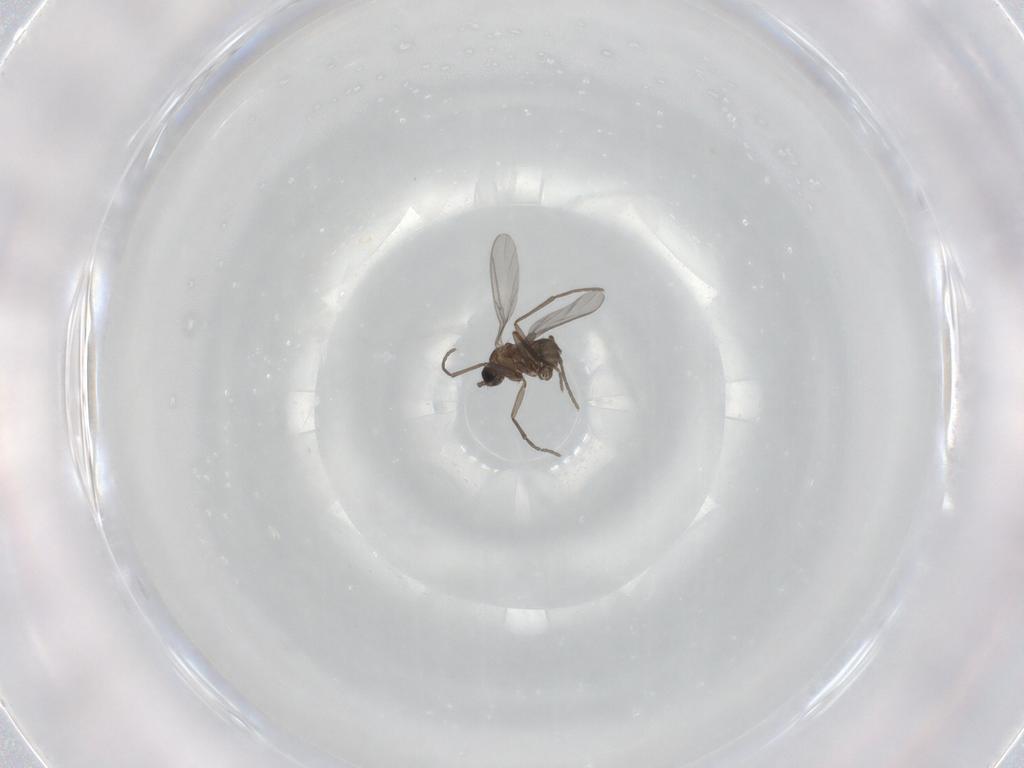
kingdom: Animalia
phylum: Arthropoda
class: Insecta
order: Diptera
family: Sciaridae
